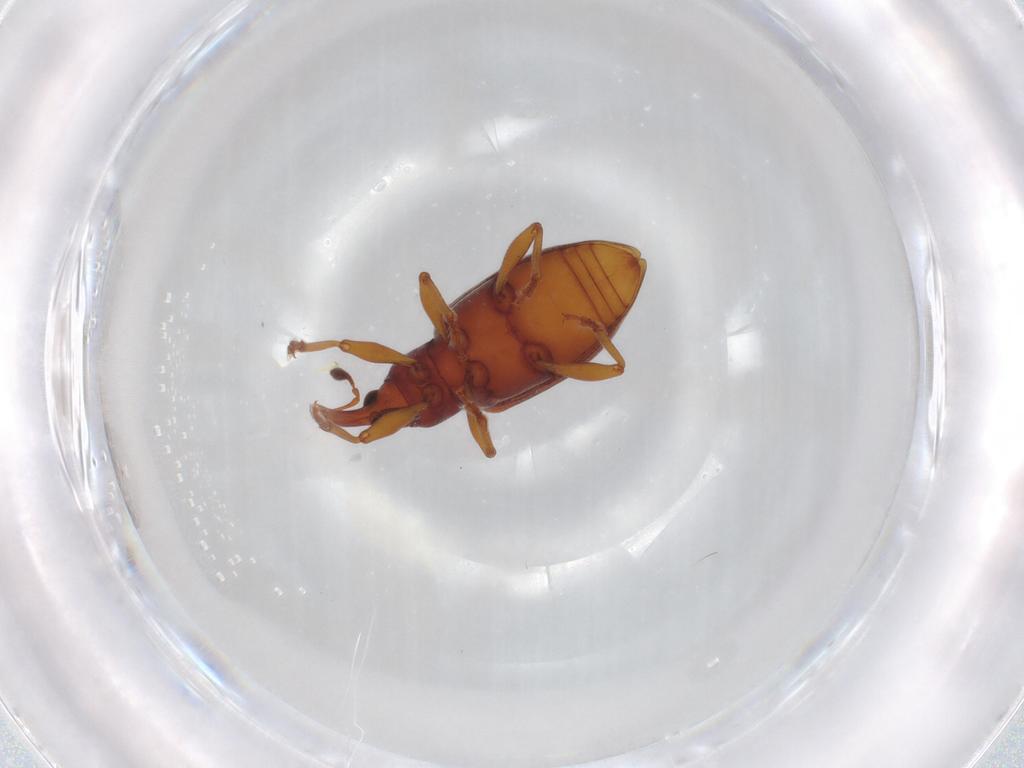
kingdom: Animalia
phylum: Arthropoda
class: Insecta
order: Coleoptera
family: Curculionidae
